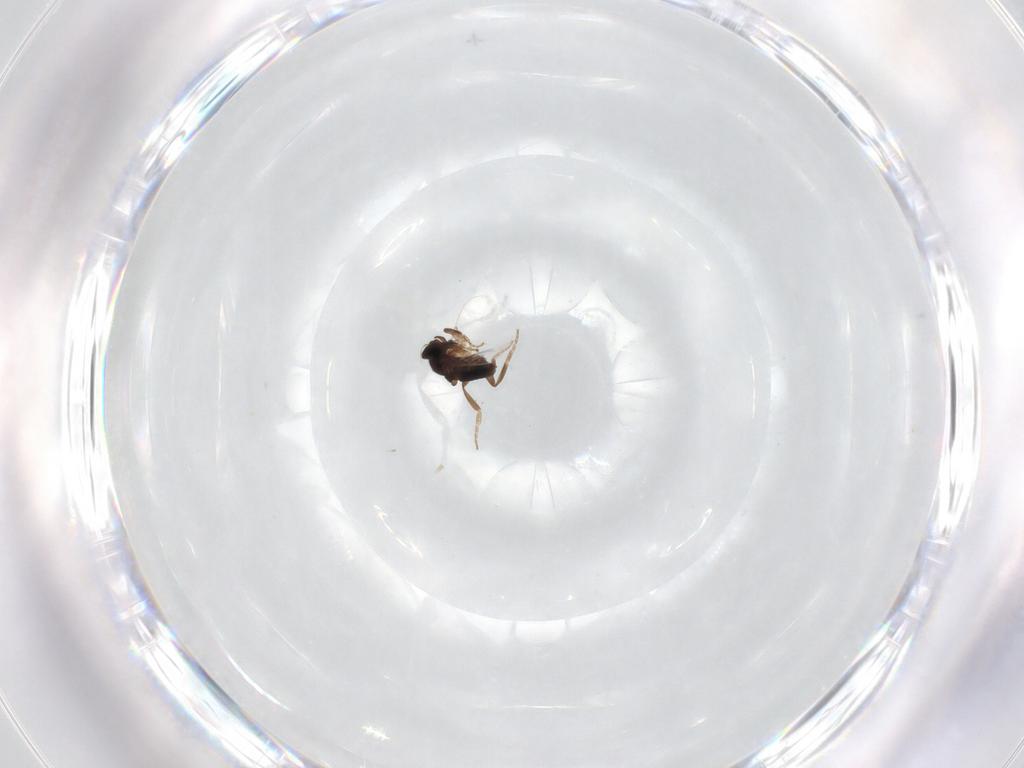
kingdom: Animalia
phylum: Arthropoda
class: Insecta
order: Diptera
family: Phoridae
